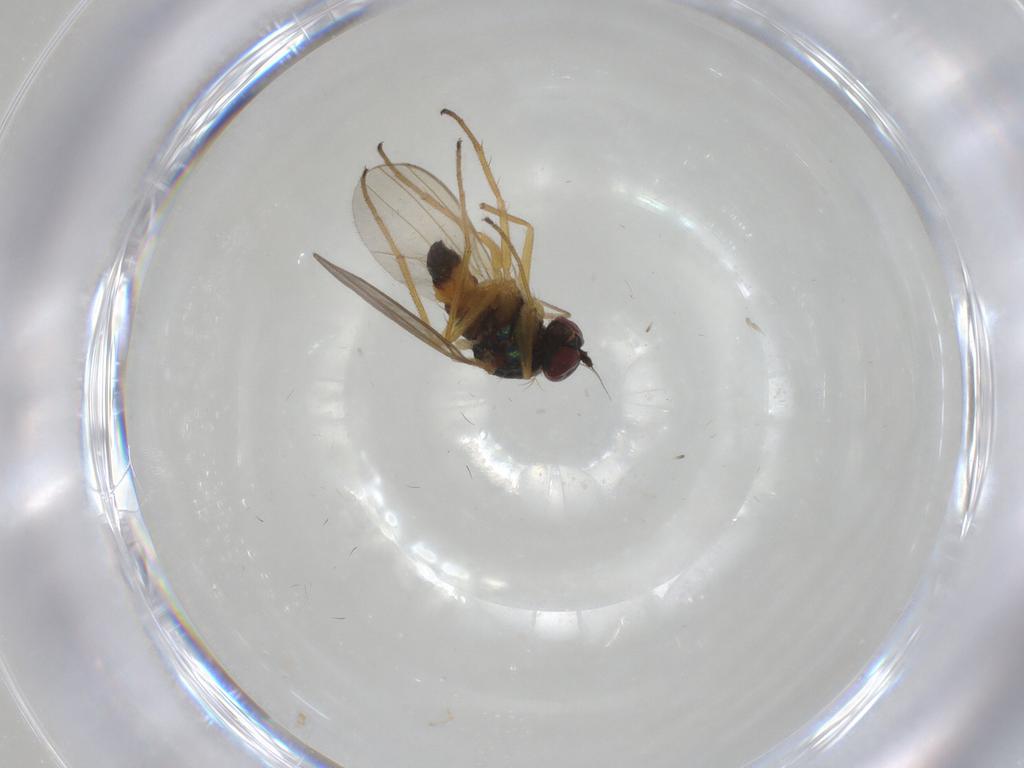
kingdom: Animalia
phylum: Arthropoda
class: Insecta
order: Diptera
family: Dolichopodidae
